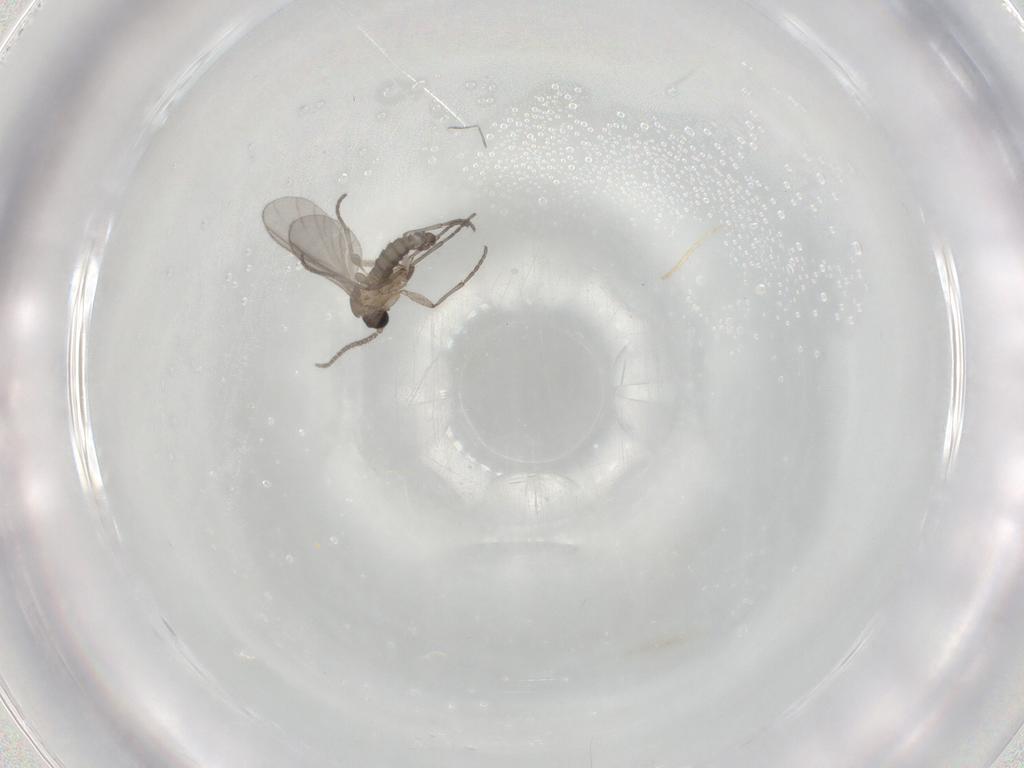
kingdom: Animalia
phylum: Arthropoda
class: Insecta
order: Diptera
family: Sciaridae
